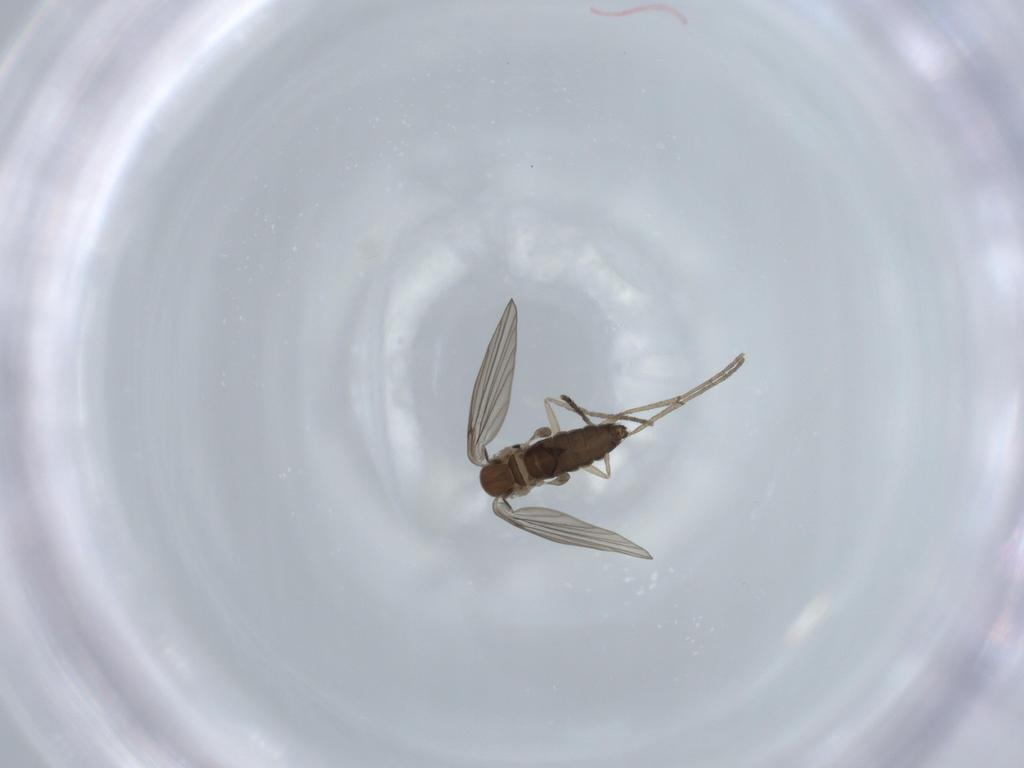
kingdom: Animalia
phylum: Arthropoda
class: Insecta
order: Diptera
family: Psychodidae
